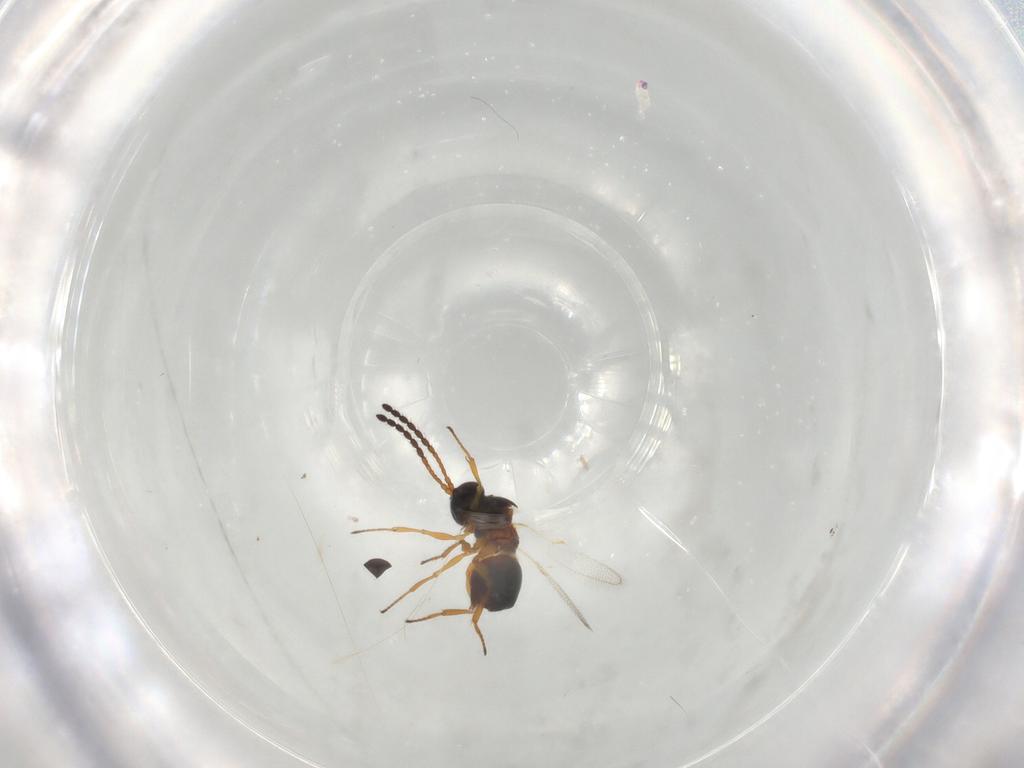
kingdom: Animalia
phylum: Arthropoda
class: Insecta
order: Hymenoptera
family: Figitidae
